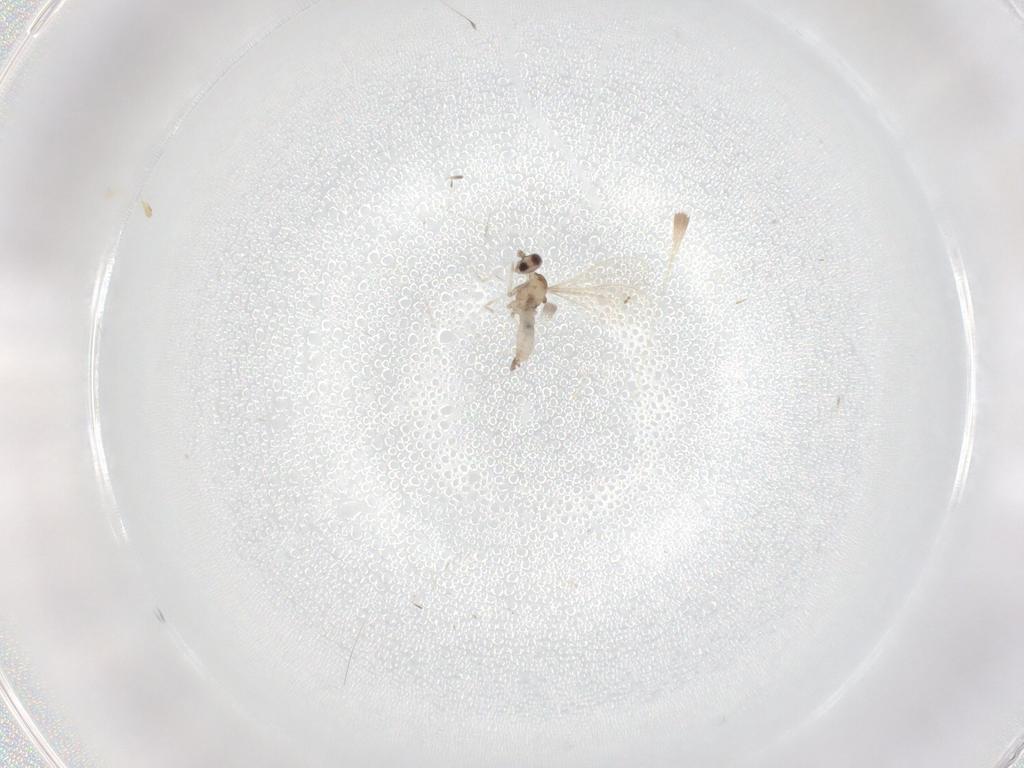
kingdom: Animalia
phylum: Arthropoda
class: Insecta
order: Diptera
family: Cecidomyiidae
